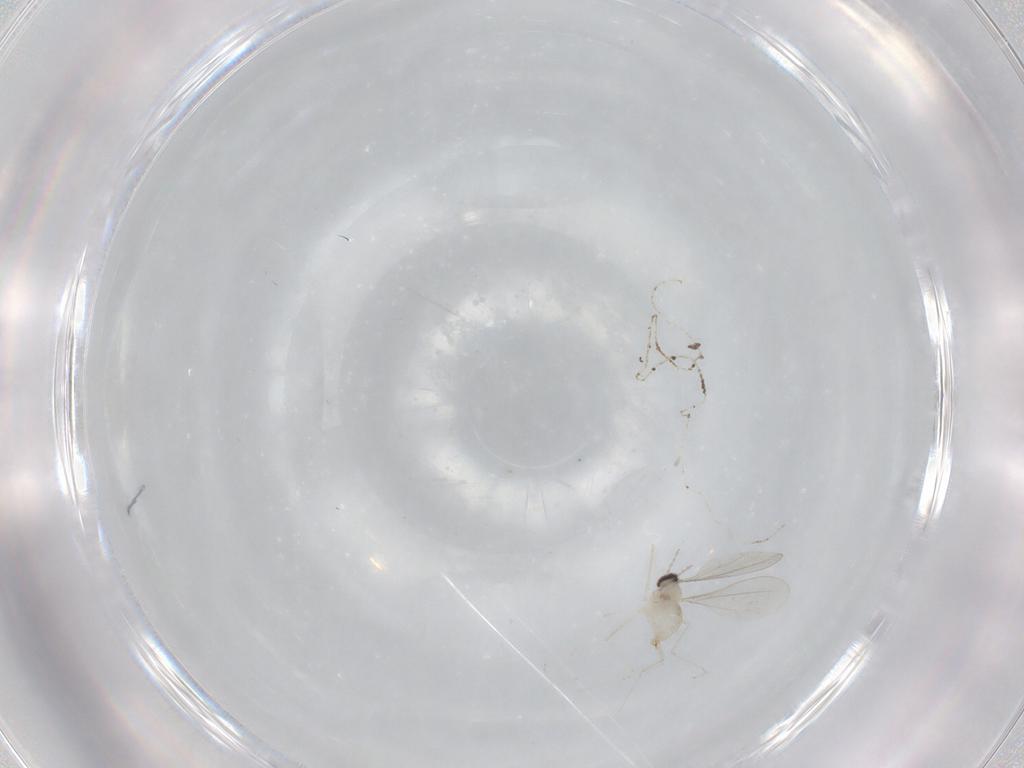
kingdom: Animalia
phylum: Arthropoda
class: Insecta
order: Diptera
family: Cecidomyiidae
